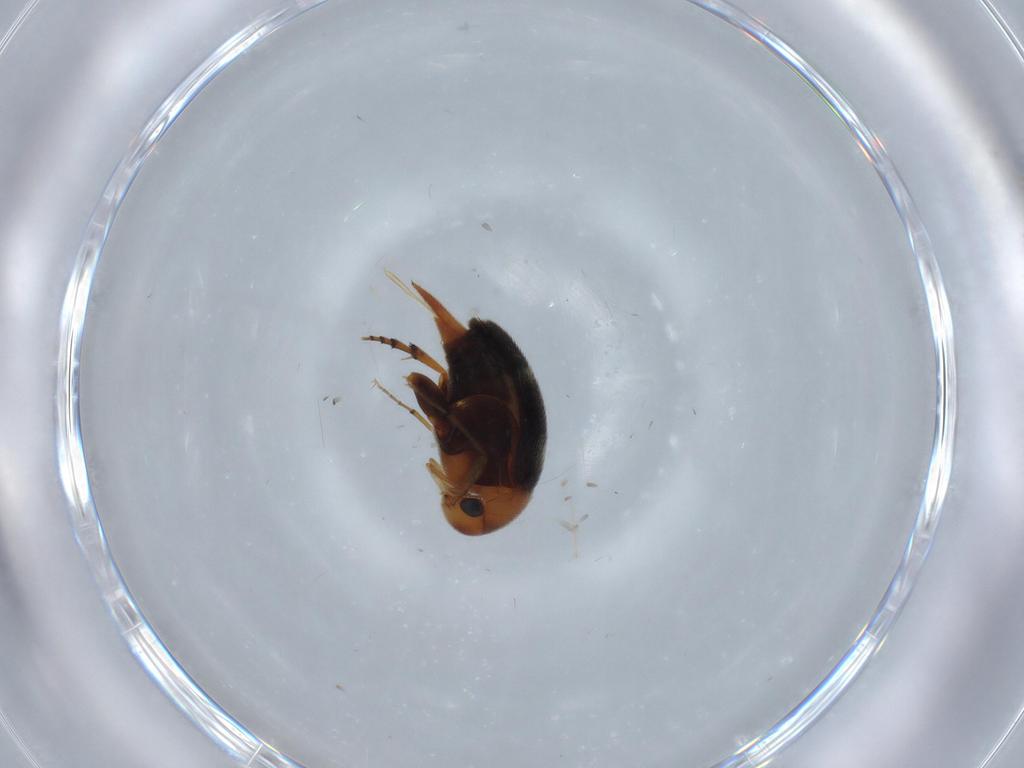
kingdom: Animalia
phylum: Arthropoda
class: Insecta
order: Coleoptera
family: Mordellidae
